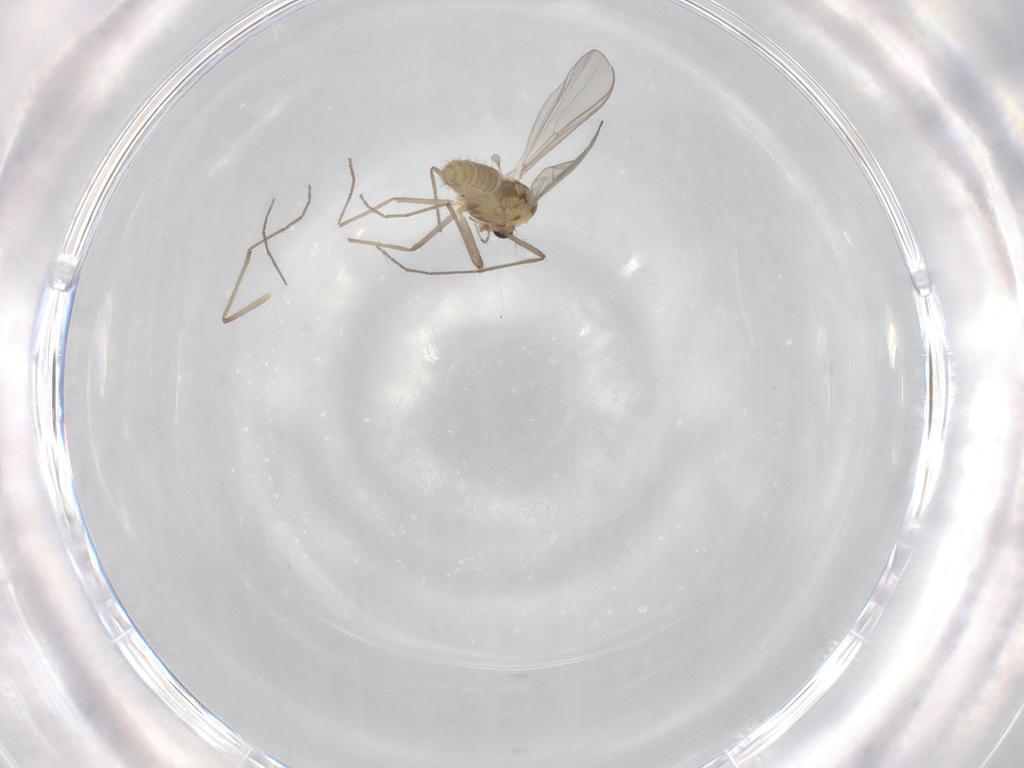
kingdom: Animalia
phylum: Arthropoda
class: Insecta
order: Diptera
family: Chironomidae
